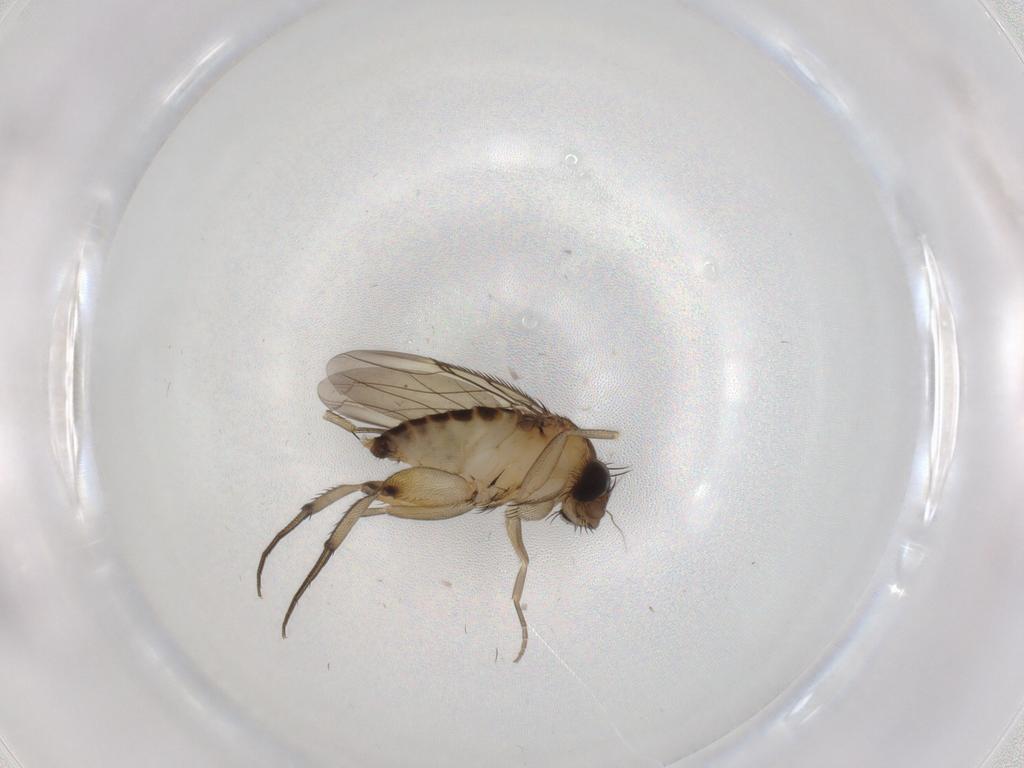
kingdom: Animalia
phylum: Arthropoda
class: Insecta
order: Diptera
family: Phoridae
